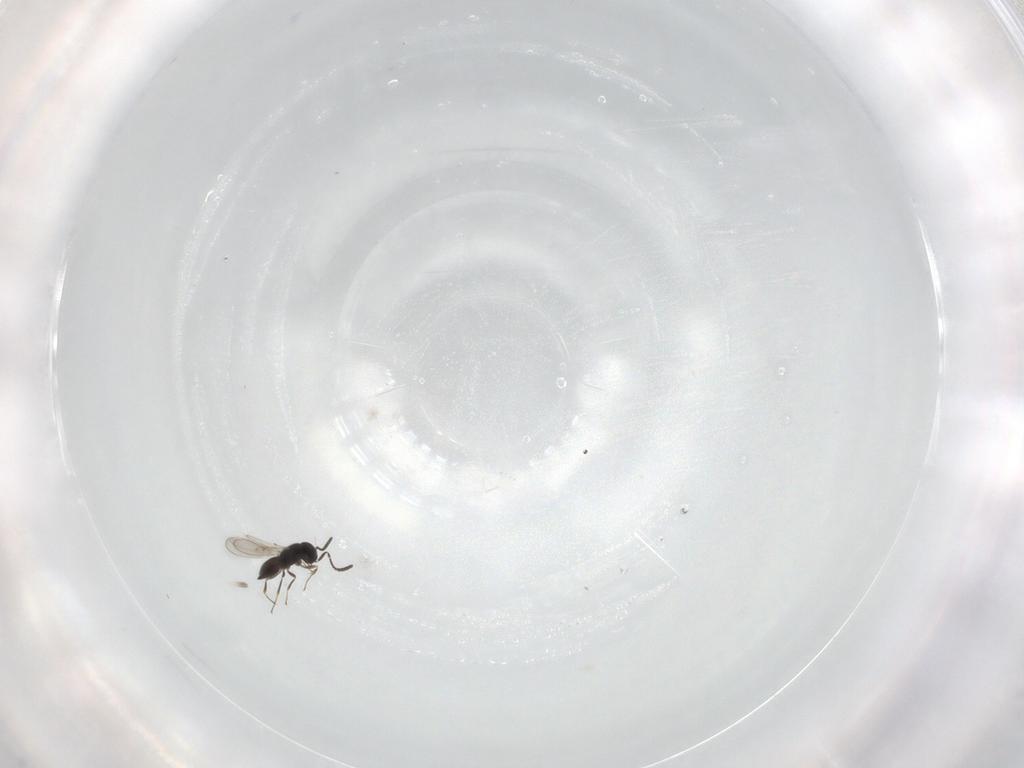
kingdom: Animalia
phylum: Arthropoda
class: Insecta
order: Hymenoptera
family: Scelionidae
